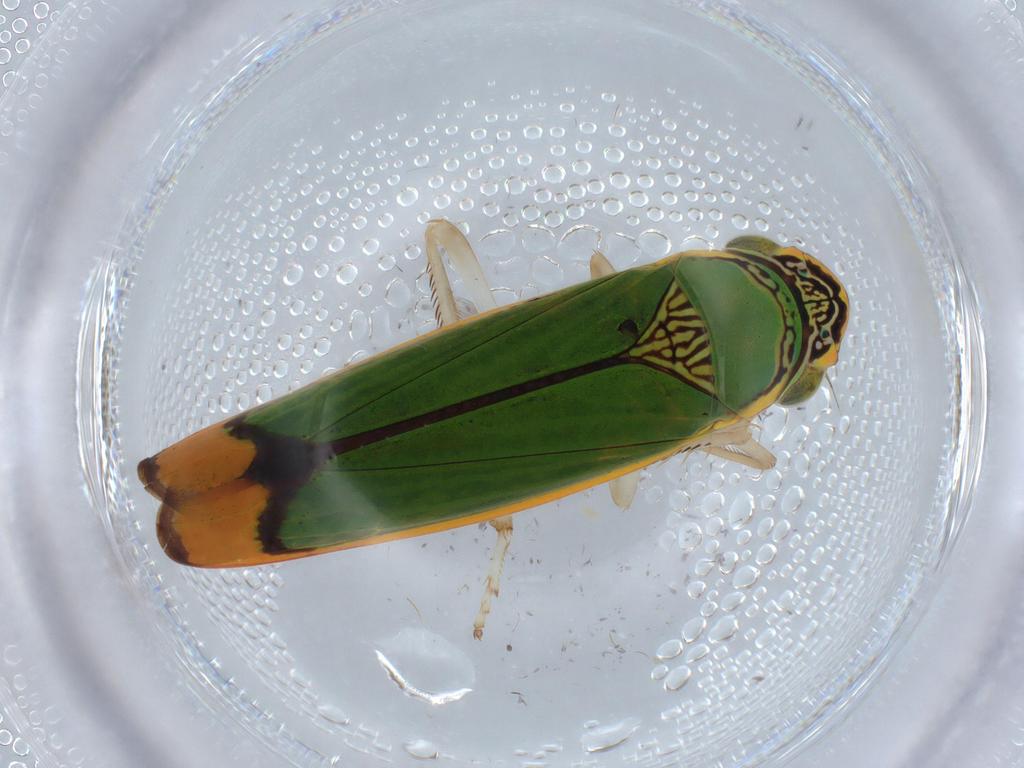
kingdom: Animalia
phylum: Arthropoda
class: Insecta
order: Hemiptera
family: Cicadellidae
